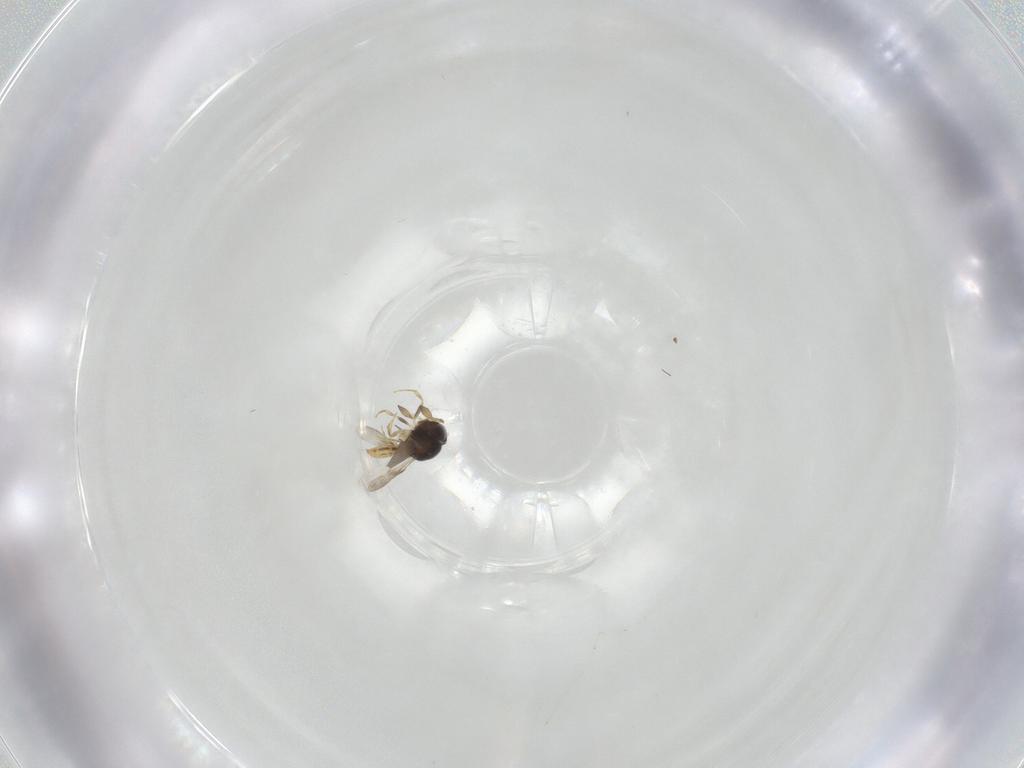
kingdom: Animalia
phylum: Arthropoda
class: Insecta
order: Hymenoptera
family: Scelionidae
